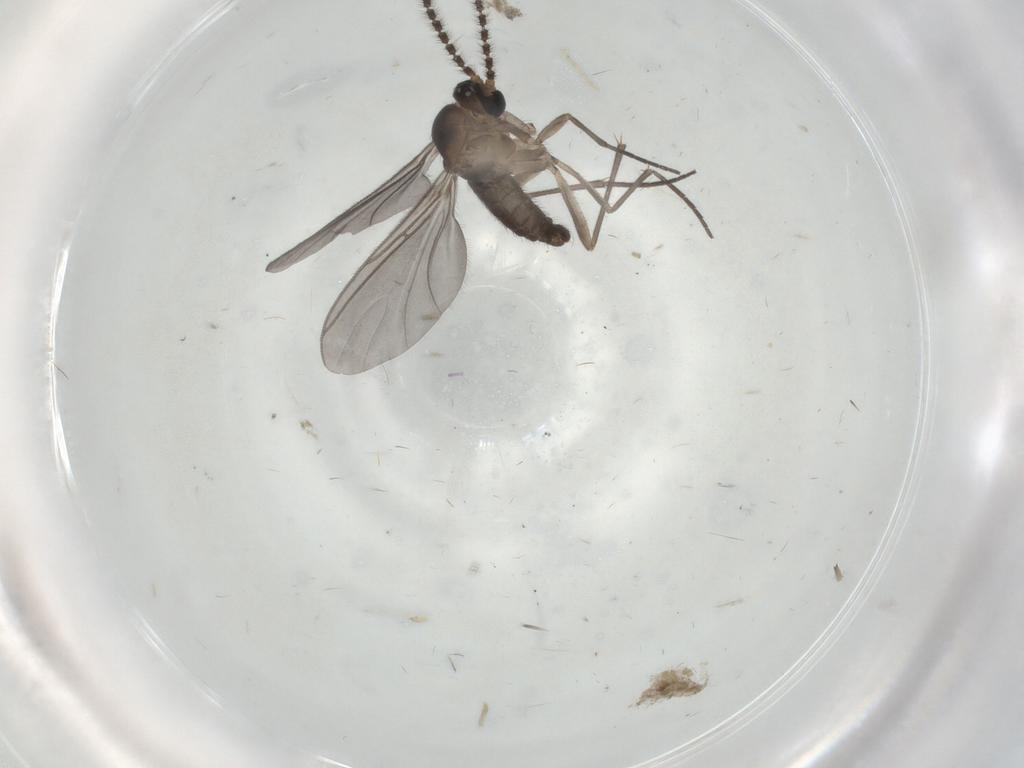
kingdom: Animalia
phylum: Arthropoda
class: Insecta
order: Diptera
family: Sciaridae
